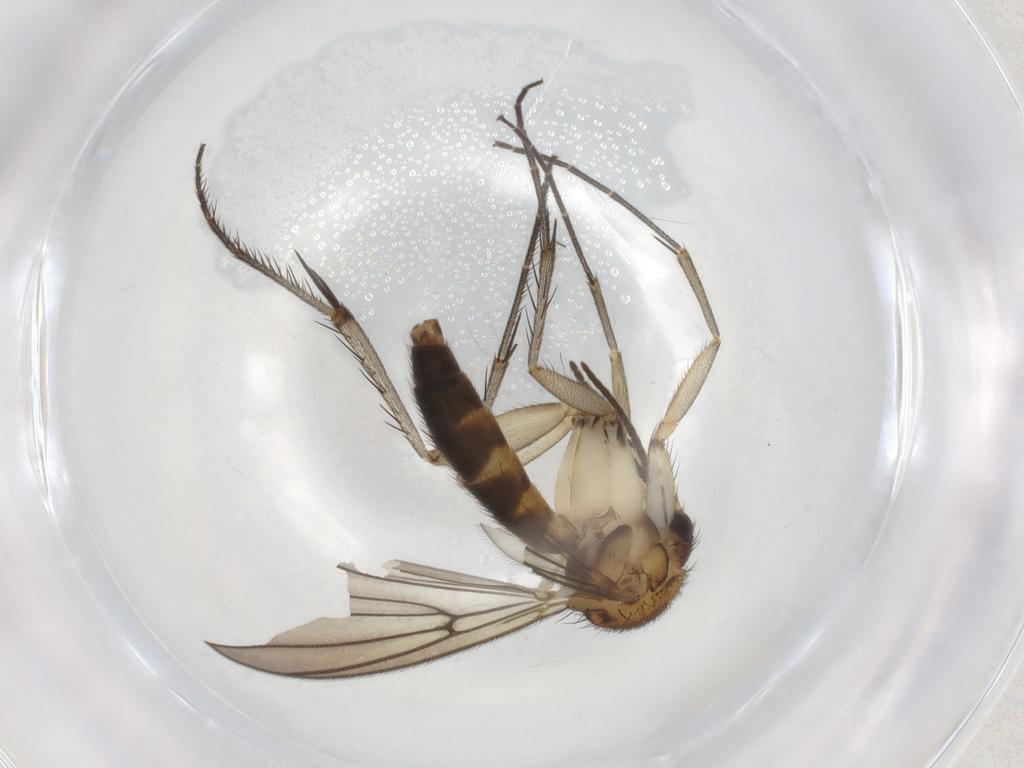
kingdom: Animalia
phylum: Arthropoda
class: Insecta
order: Diptera
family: Mycetophilidae
